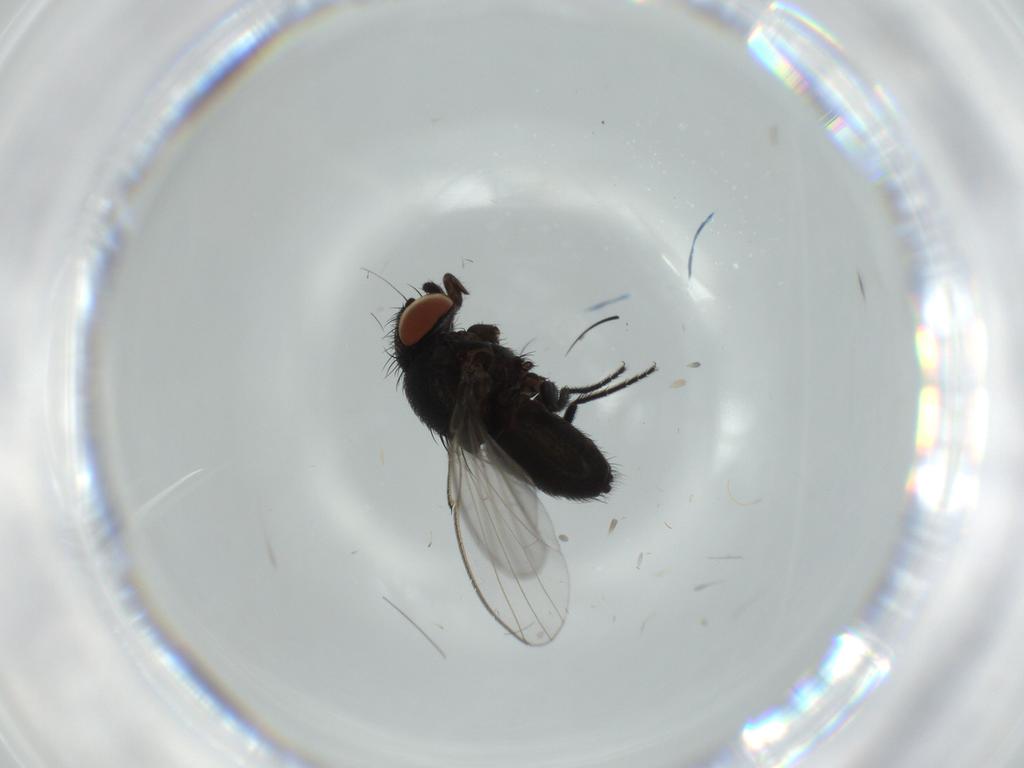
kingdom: Animalia
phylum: Arthropoda
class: Insecta
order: Diptera
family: Milichiidae
